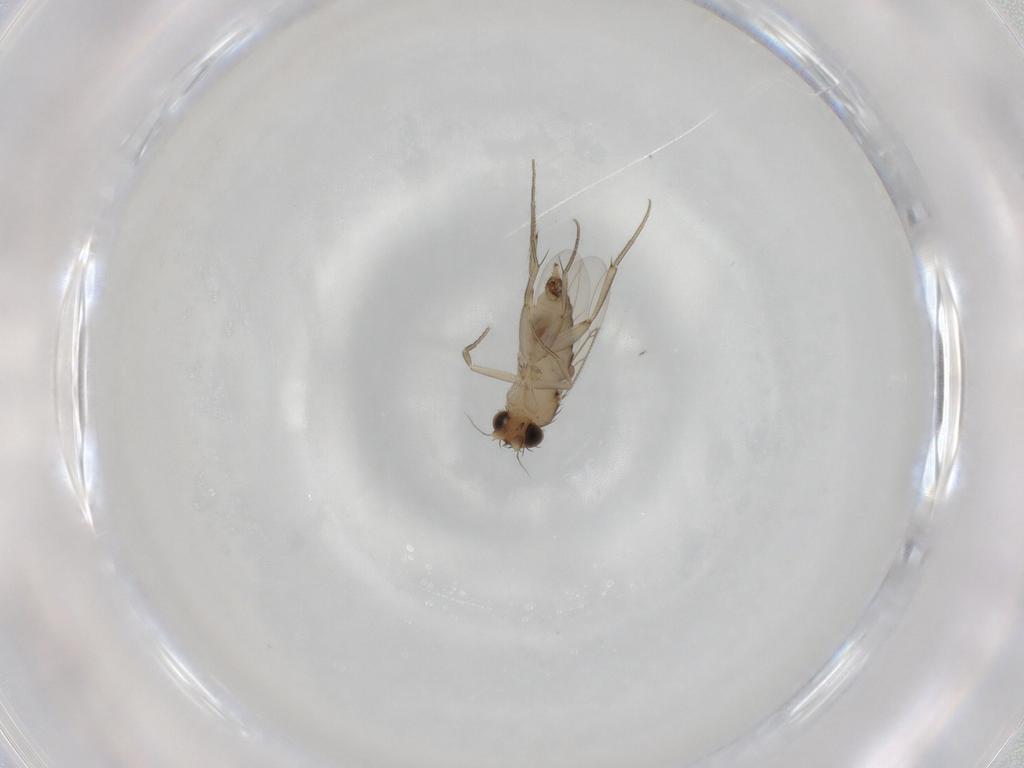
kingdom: Animalia
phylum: Arthropoda
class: Insecta
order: Diptera
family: Phoridae
